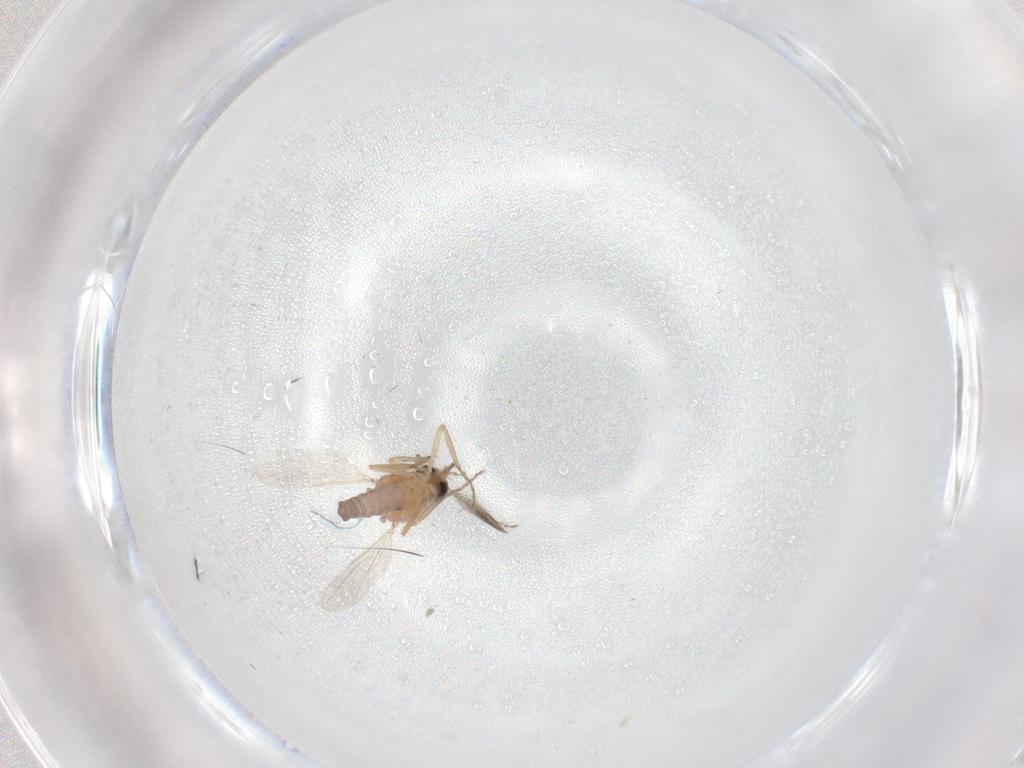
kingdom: Animalia
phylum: Arthropoda
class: Insecta
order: Diptera
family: Ceratopogonidae
